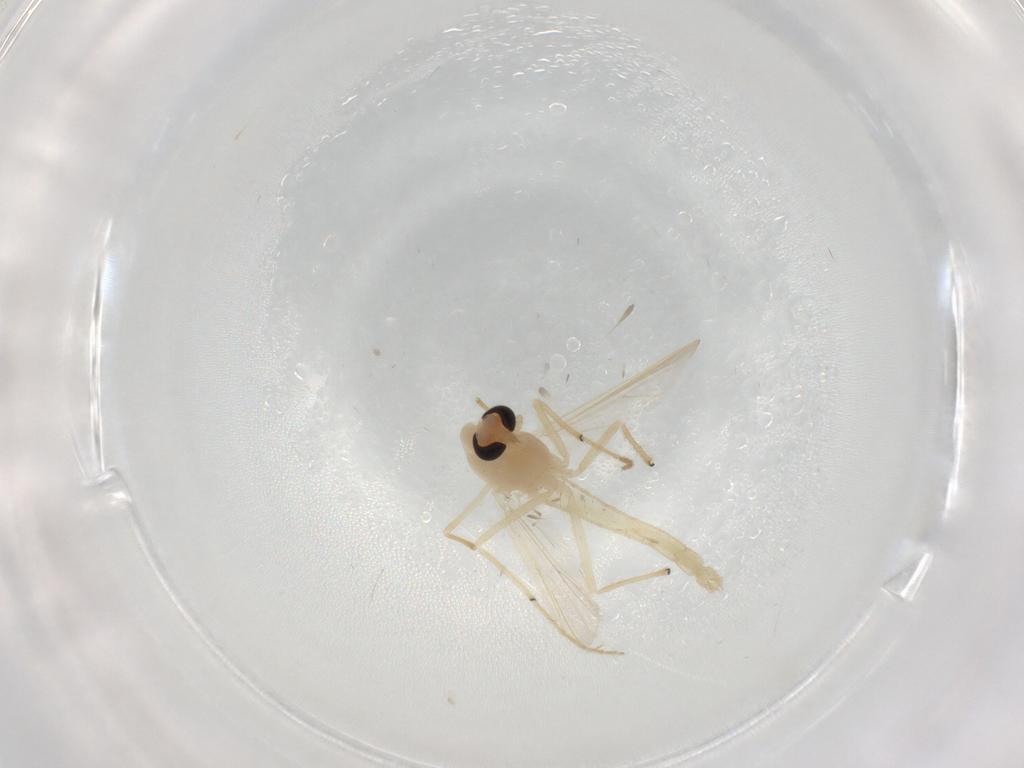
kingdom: Animalia
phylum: Arthropoda
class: Insecta
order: Diptera
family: Chironomidae
